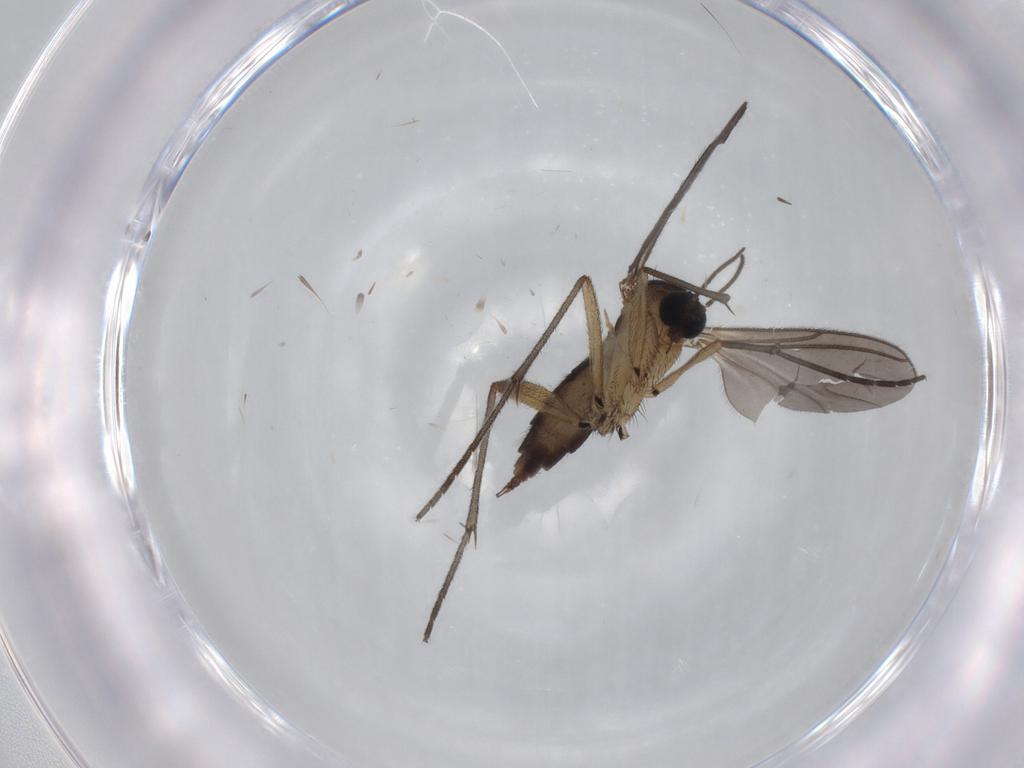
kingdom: Animalia
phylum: Arthropoda
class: Insecta
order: Diptera
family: Sciaridae
